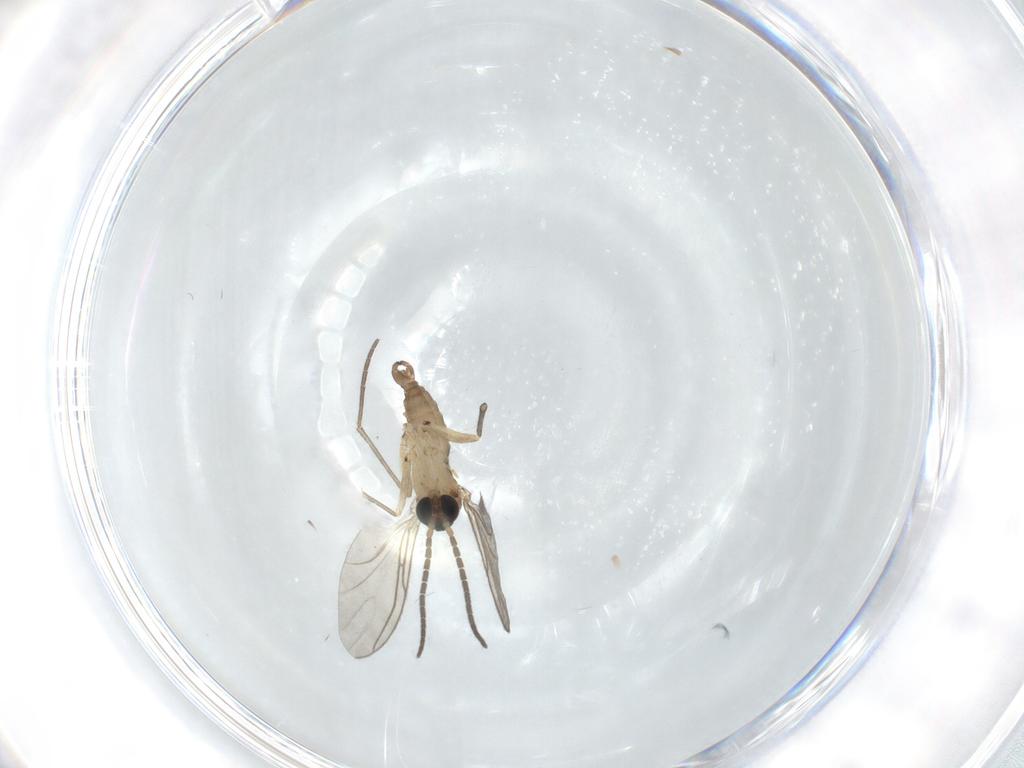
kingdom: Animalia
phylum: Arthropoda
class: Insecta
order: Diptera
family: Sciaridae
